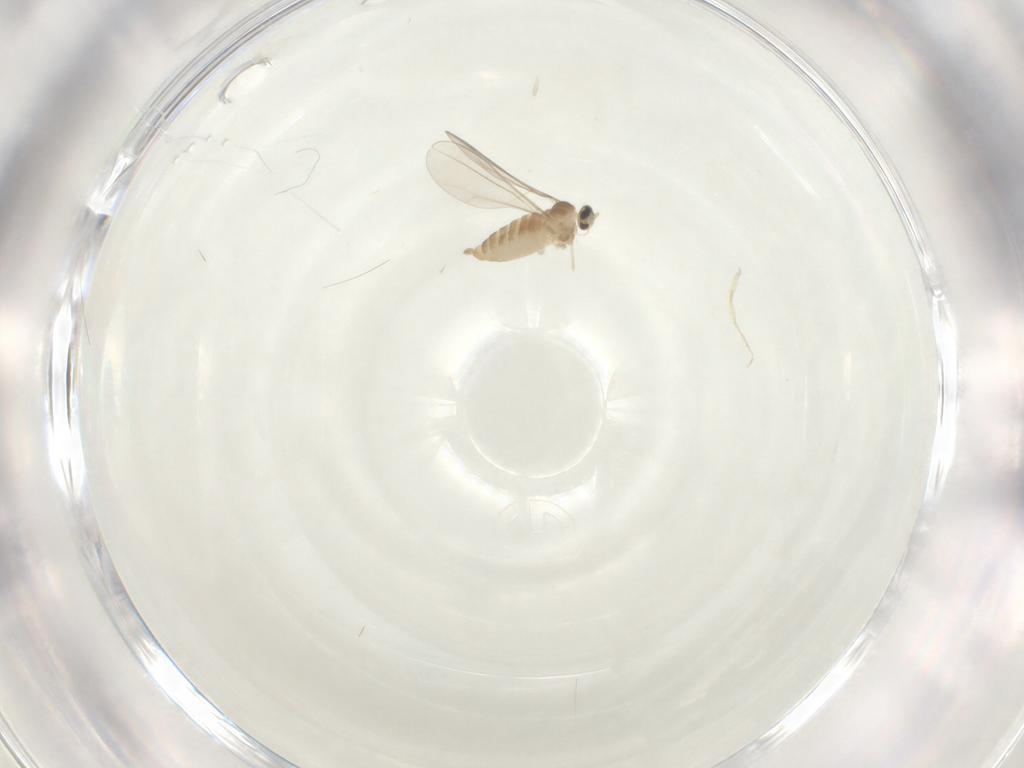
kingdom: Animalia
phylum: Arthropoda
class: Insecta
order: Diptera
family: Cecidomyiidae
